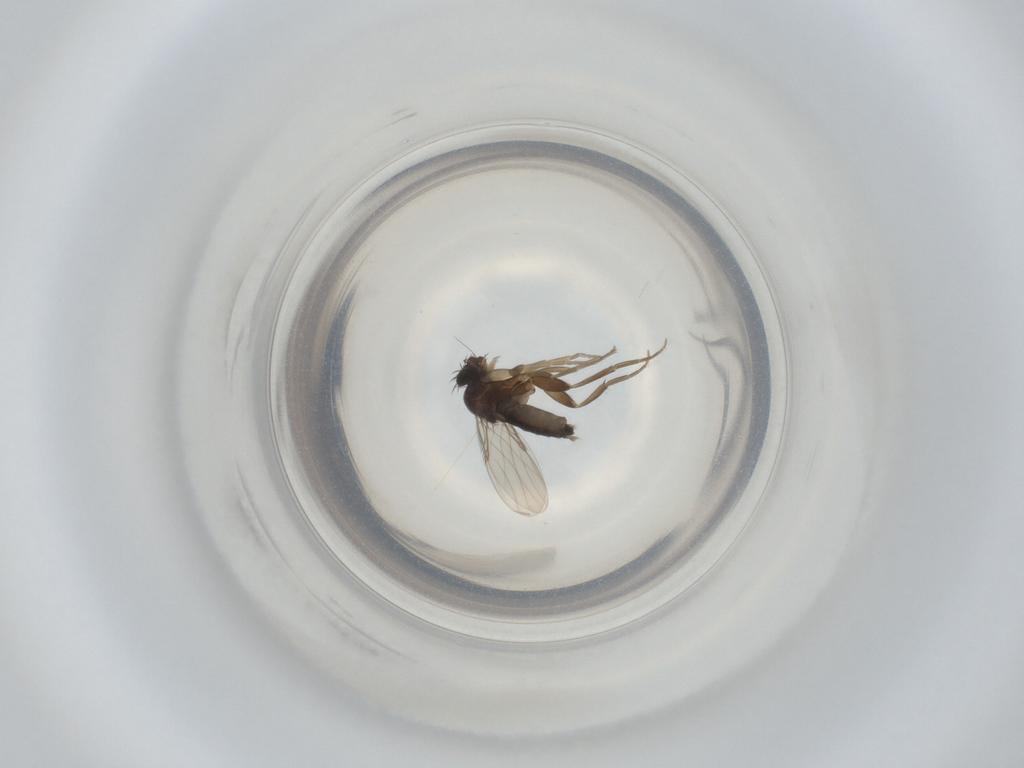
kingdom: Animalia
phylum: Arthropoda
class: Insecta
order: Diptera
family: Phoridae
